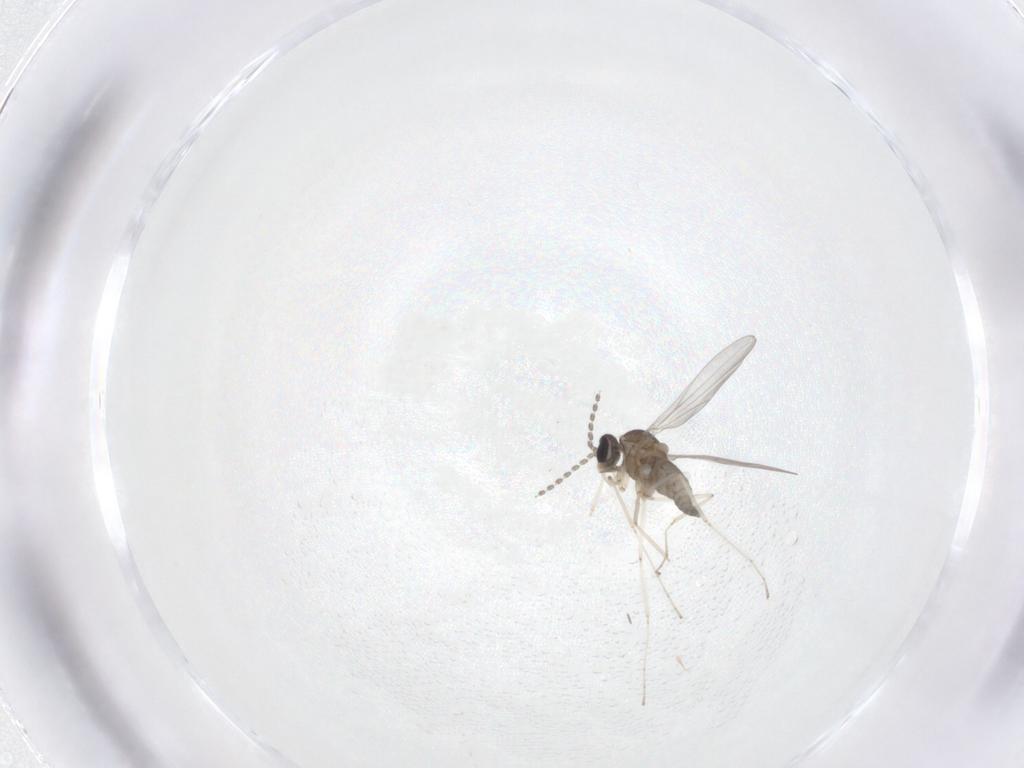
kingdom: Animalia
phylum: Arthropoda
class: Insecta
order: Diptera
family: Cecidomyiidae
